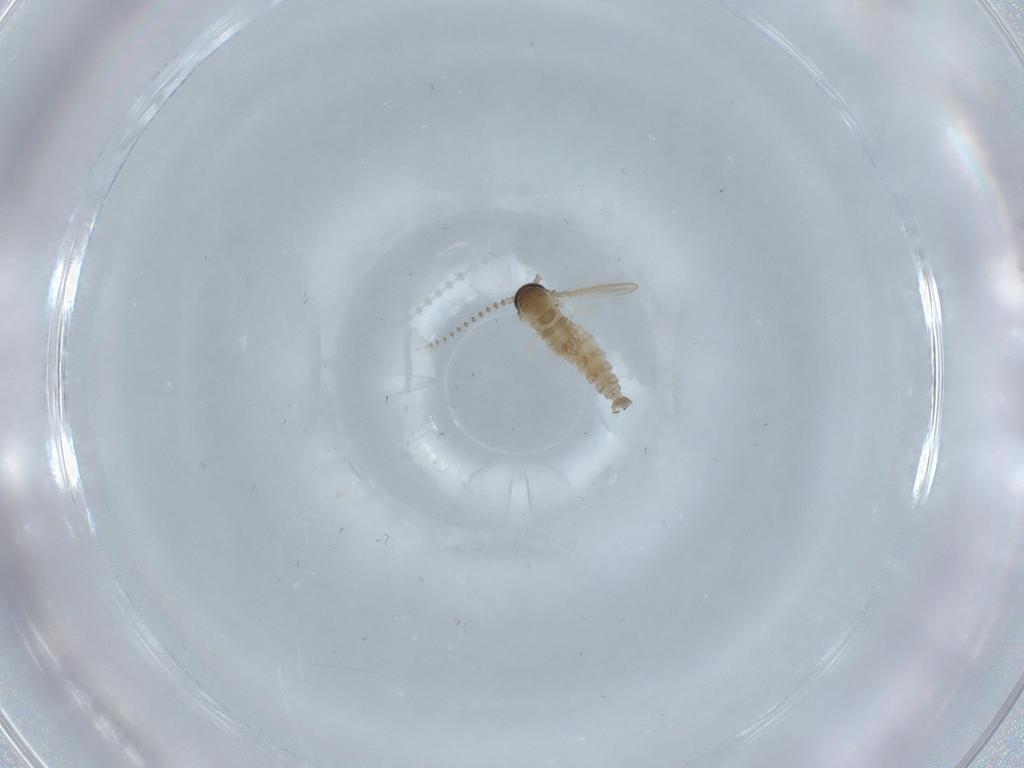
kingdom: Animalia
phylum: Arthropoda
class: Insecta
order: Diptera
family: Psychodidae
